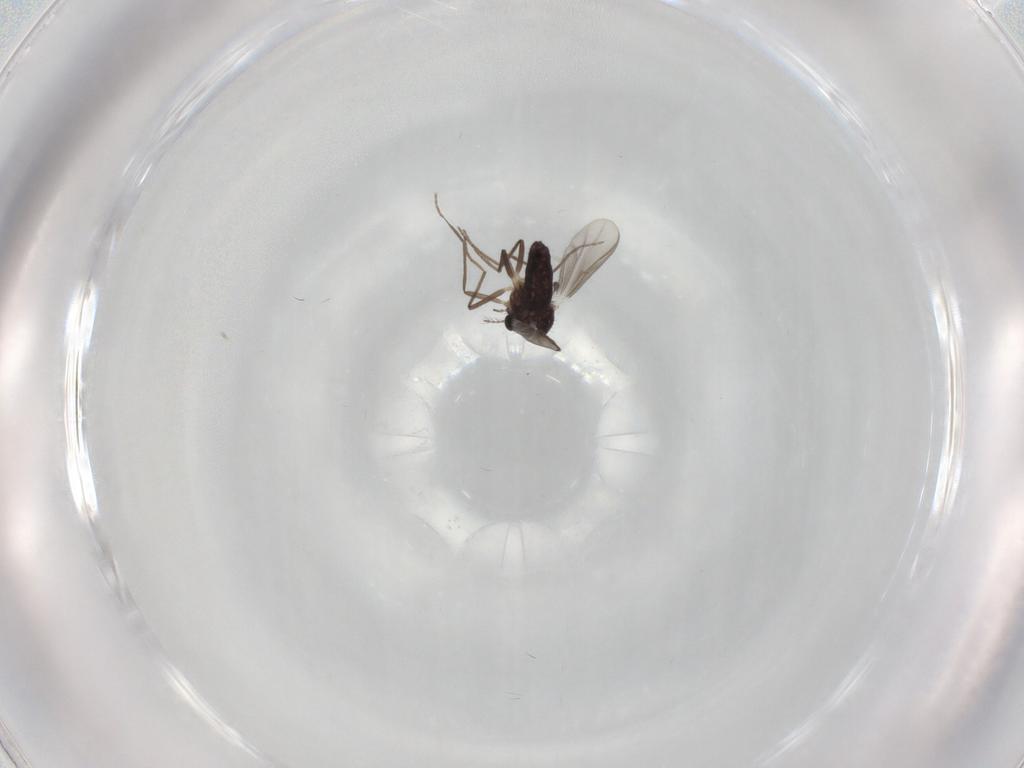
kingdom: Animalia
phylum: Arthropoda
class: Insecta
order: Diptera
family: Chironomidae
